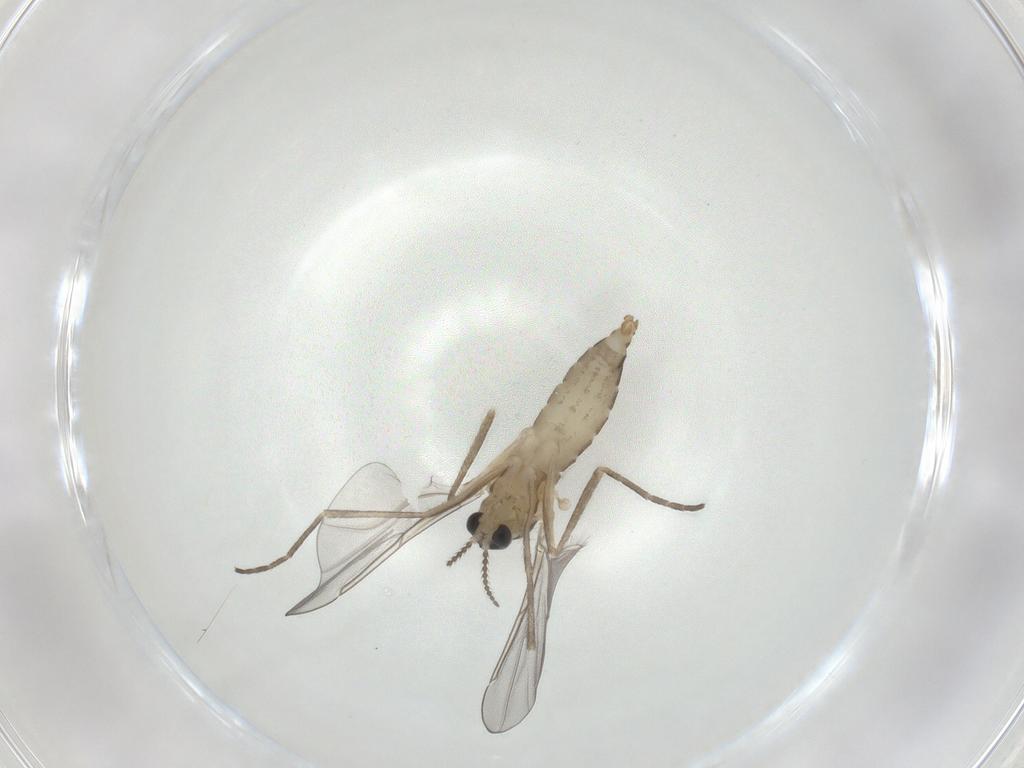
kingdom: Animalia
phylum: Arthropoda
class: Insecta
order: Diptera
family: Cecidomyiidae
